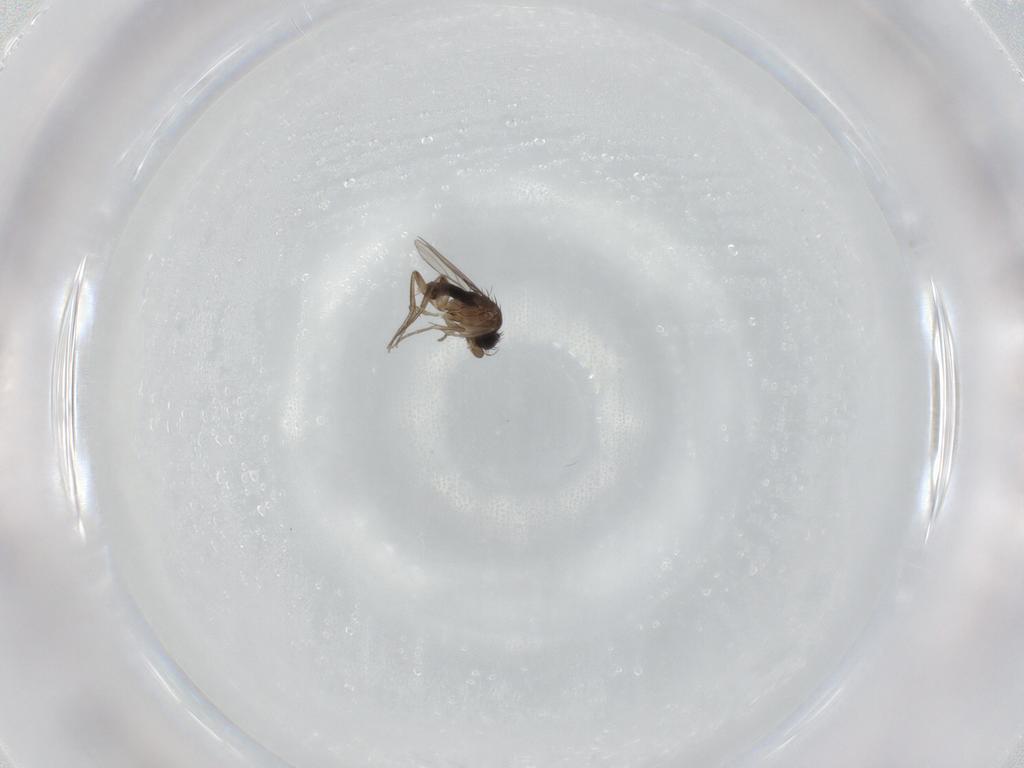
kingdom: Animalia
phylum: Arthropoda
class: Insecta
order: Diptera
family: Phoridae
